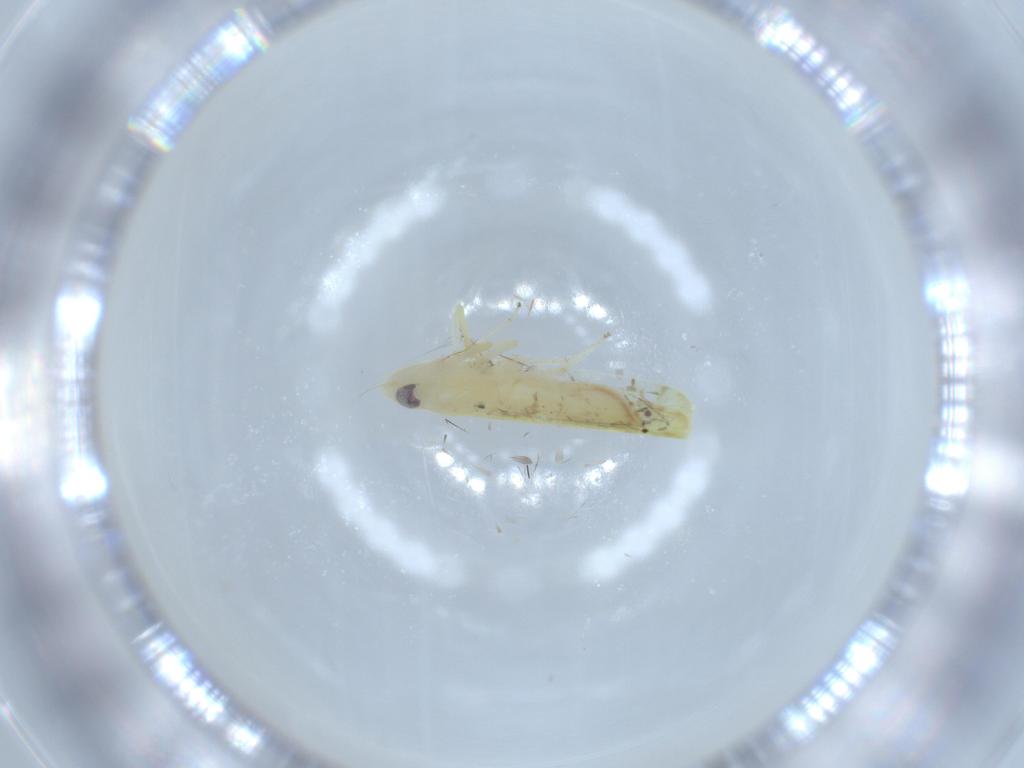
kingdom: Animalia
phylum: Arthropoda
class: Insecta
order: Hemiptera
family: Cicadellidae
